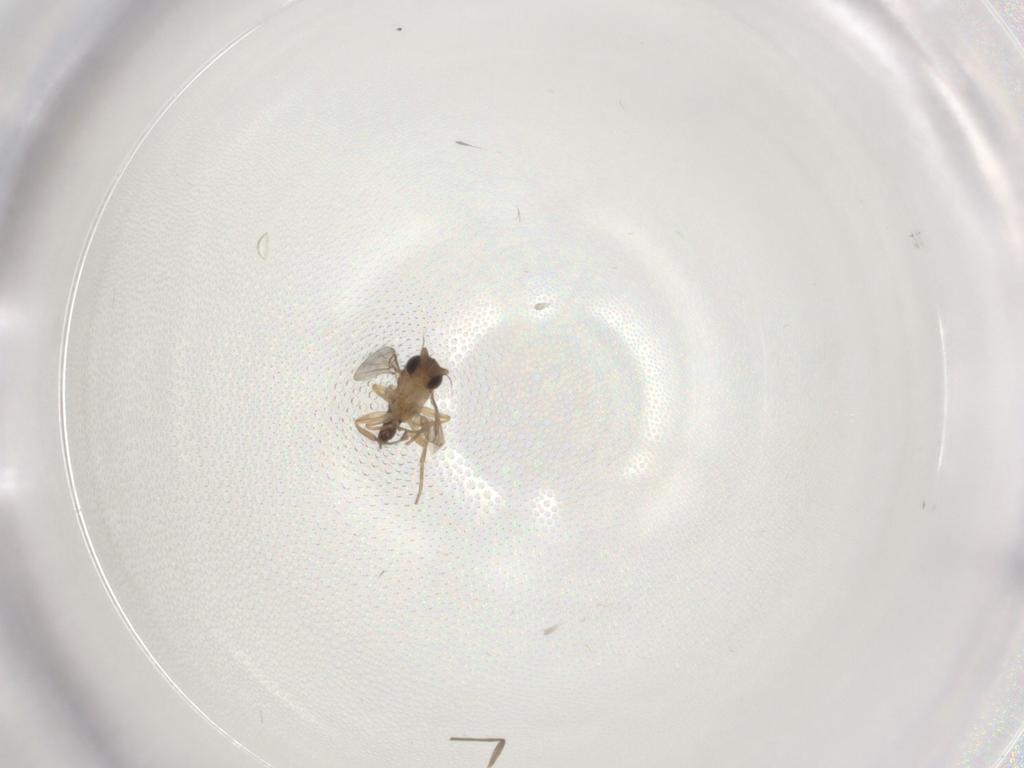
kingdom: Animalia
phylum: Arthropoda
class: Insecta
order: Diptera
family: Phoridae
